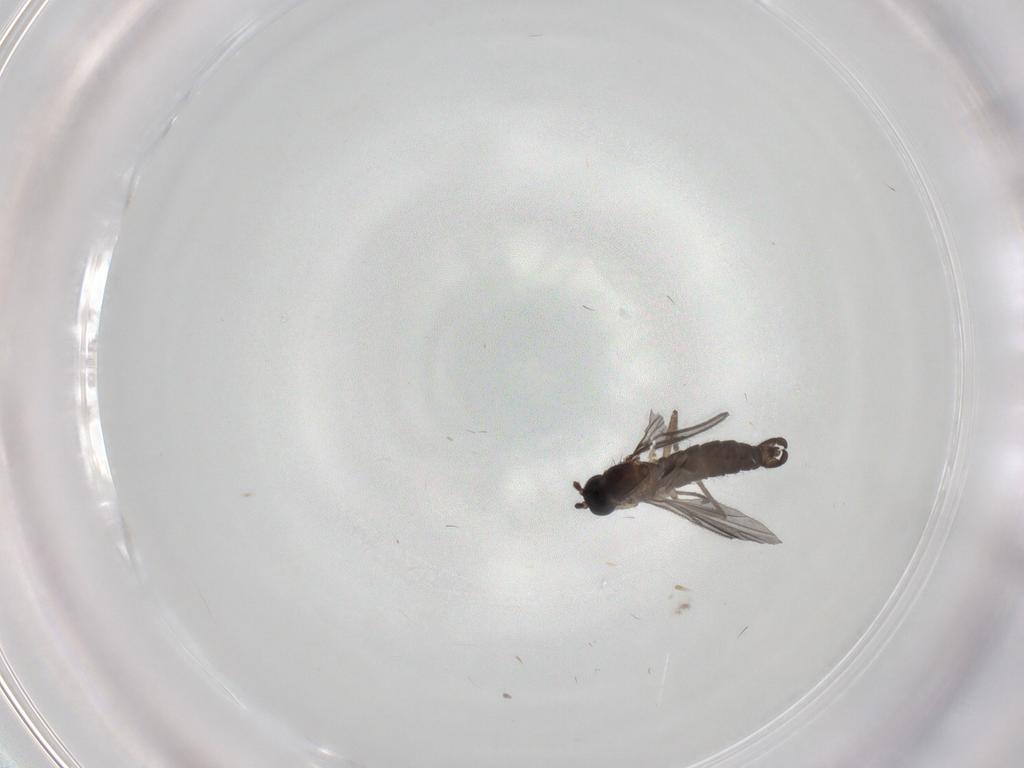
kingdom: Animalia
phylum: Arthropoda
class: Insecta
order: Diptera
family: Sciaridae
